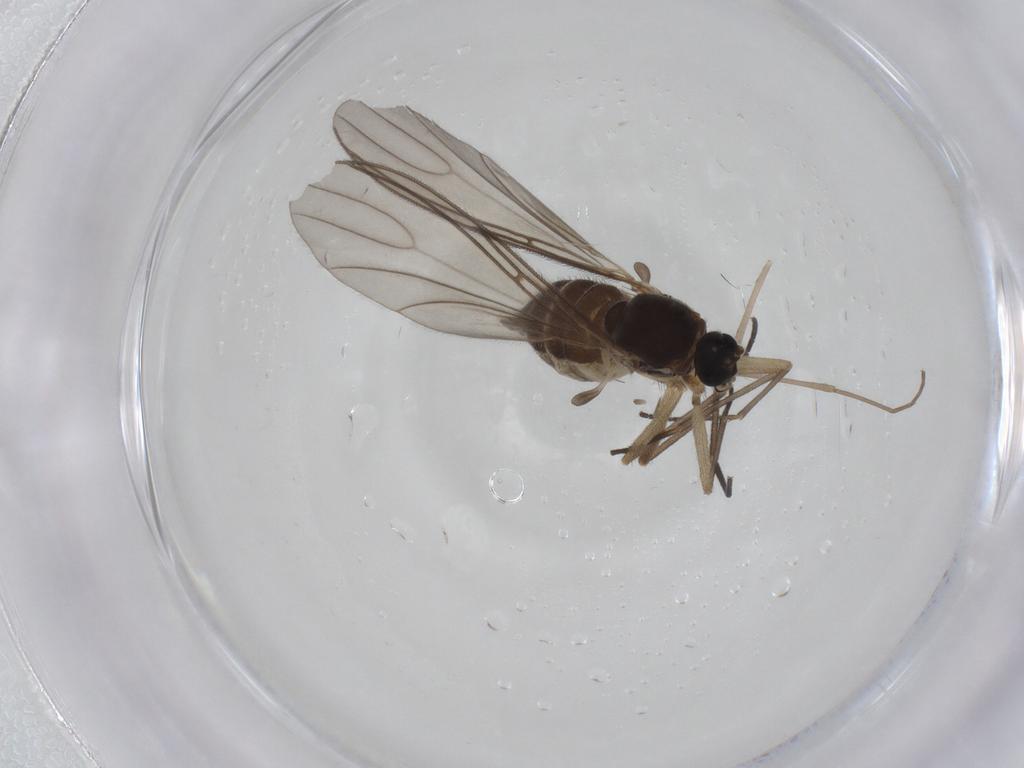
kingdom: Animalia
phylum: Arthropoda
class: Insecta
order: Diptera
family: Sciaridae
